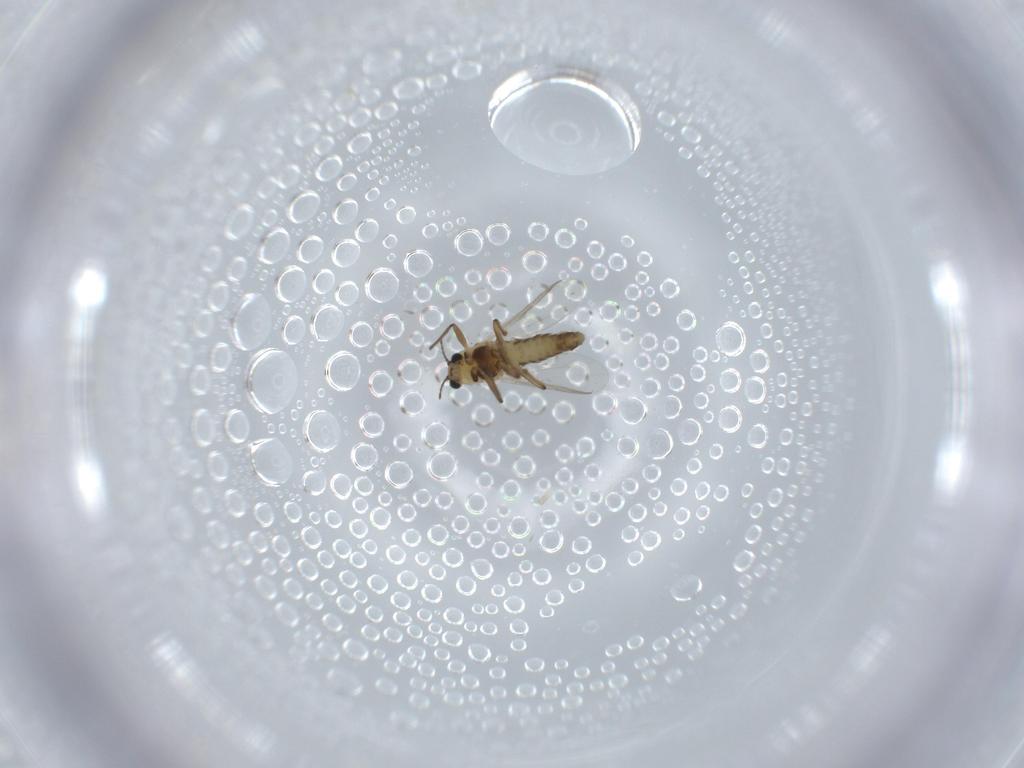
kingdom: Animalia
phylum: Arthropoda
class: Insecta
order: Diptera
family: Chironomidae
